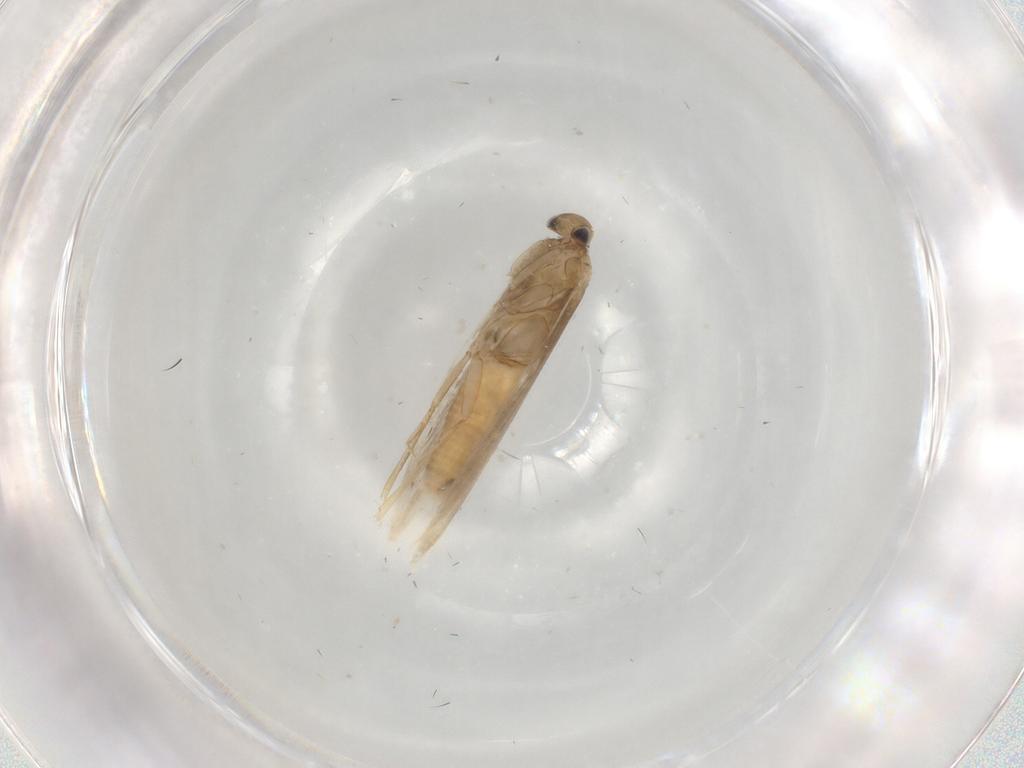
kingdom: Animalia
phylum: Arthropoda
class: Insecta
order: Lepidoptera
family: Gracillariidae
